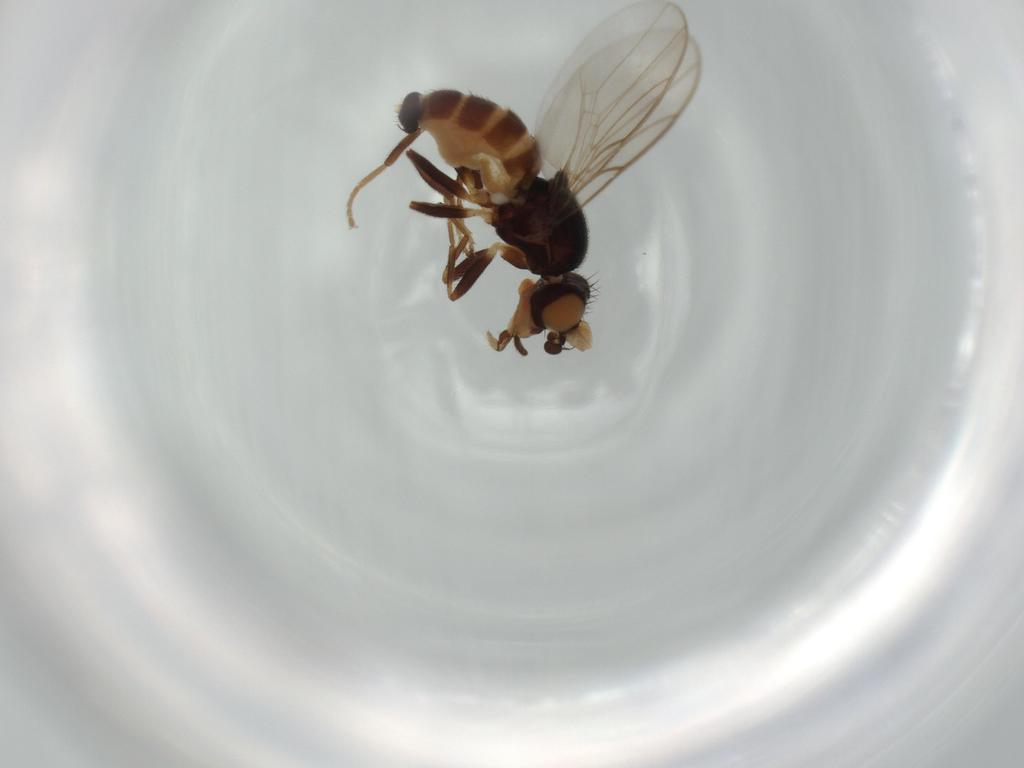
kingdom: Animalia
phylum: Arthropoda
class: Insecta
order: Diptera
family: Chloropidae
